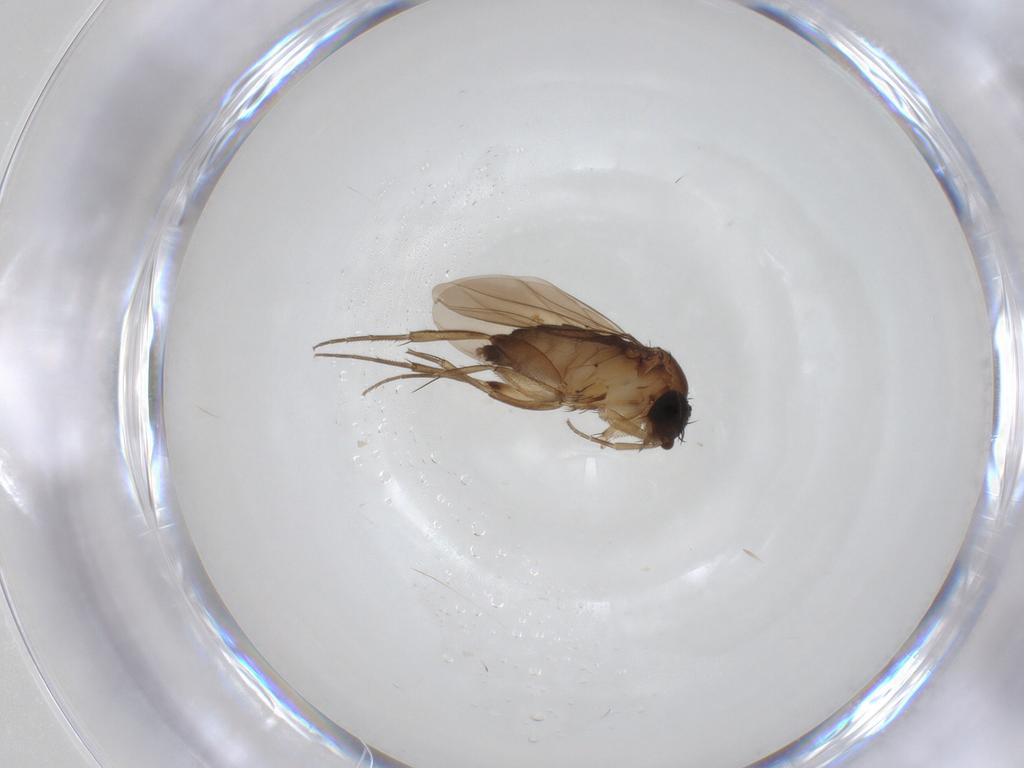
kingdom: Animalia
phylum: Arthropoda
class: Insecta
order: Diptera
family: Phoridae
